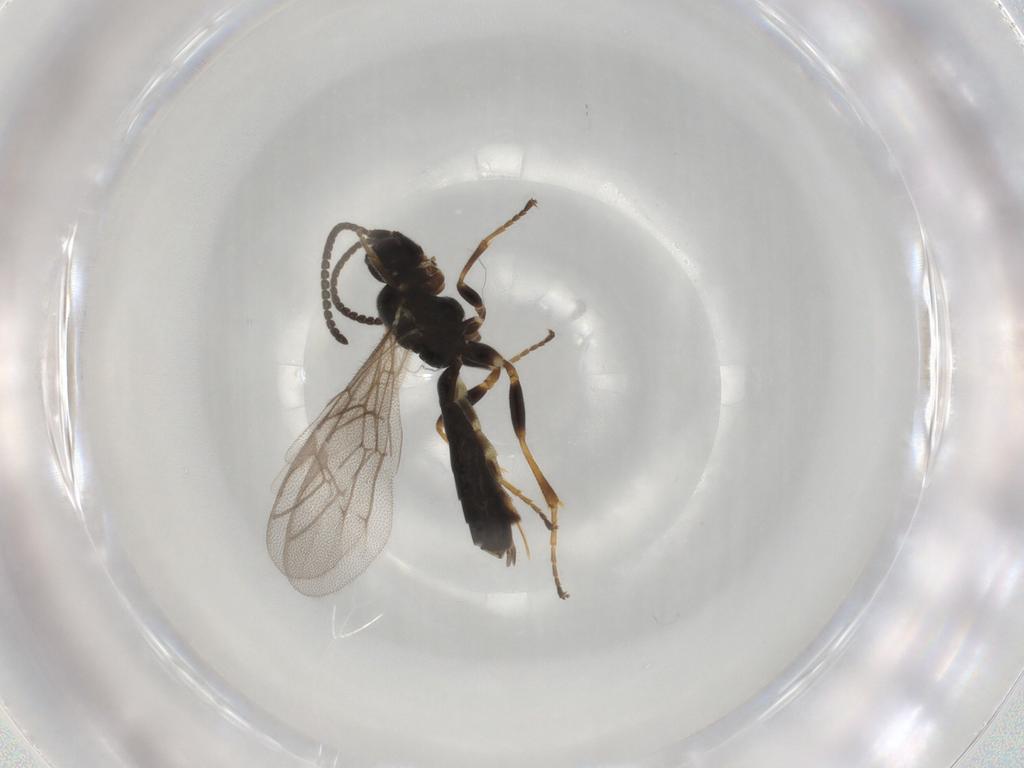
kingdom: Animalia
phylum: Arthropoda
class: Insecta
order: Hymenoptera
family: Ichneumonidae
